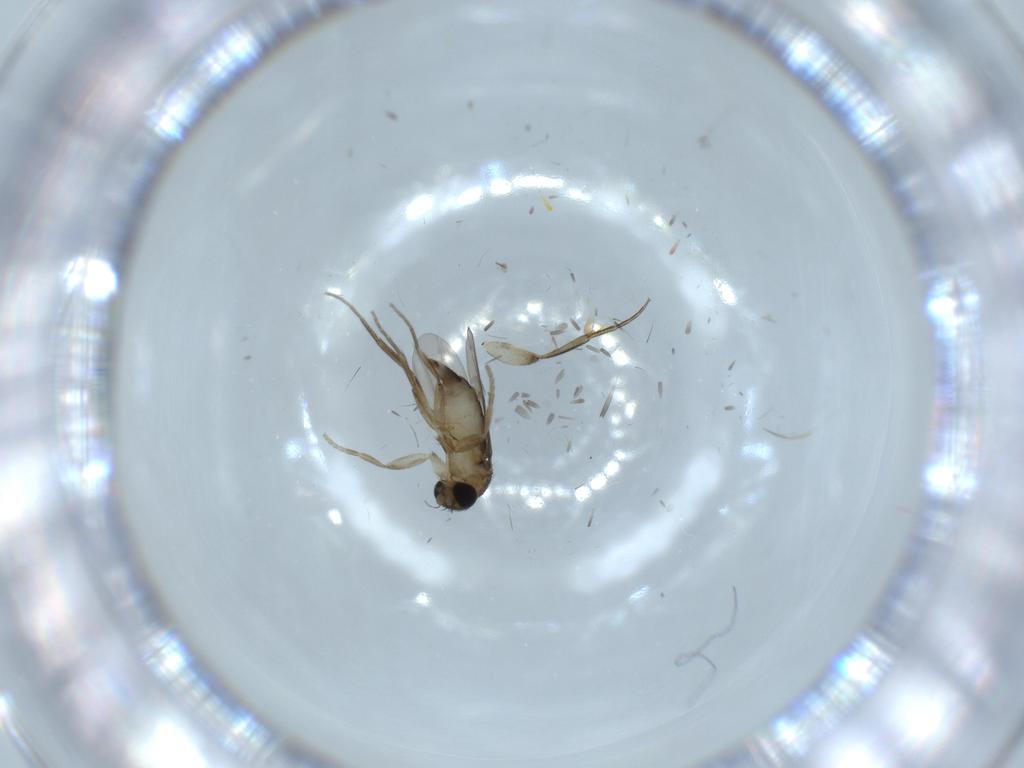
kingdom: Animalia
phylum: Arthropoda
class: Insecta
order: Diptera
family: Phoridae
